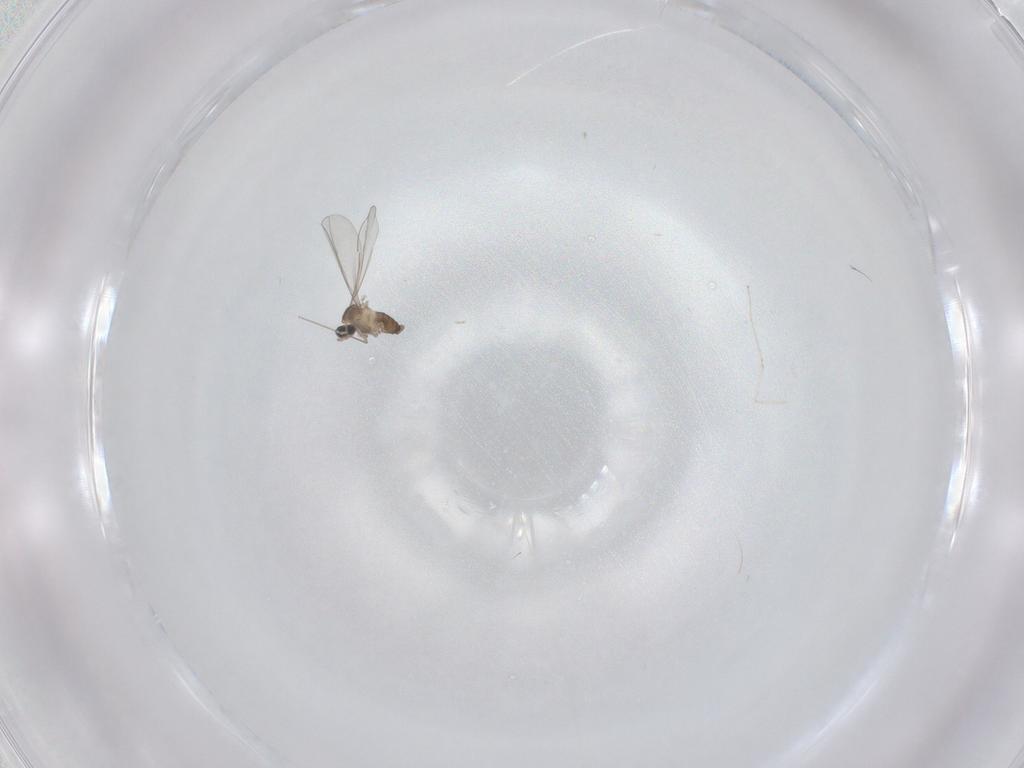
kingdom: Animalia
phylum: Arthropoda
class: Insecta
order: Diptera
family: Cecidomyiidae
